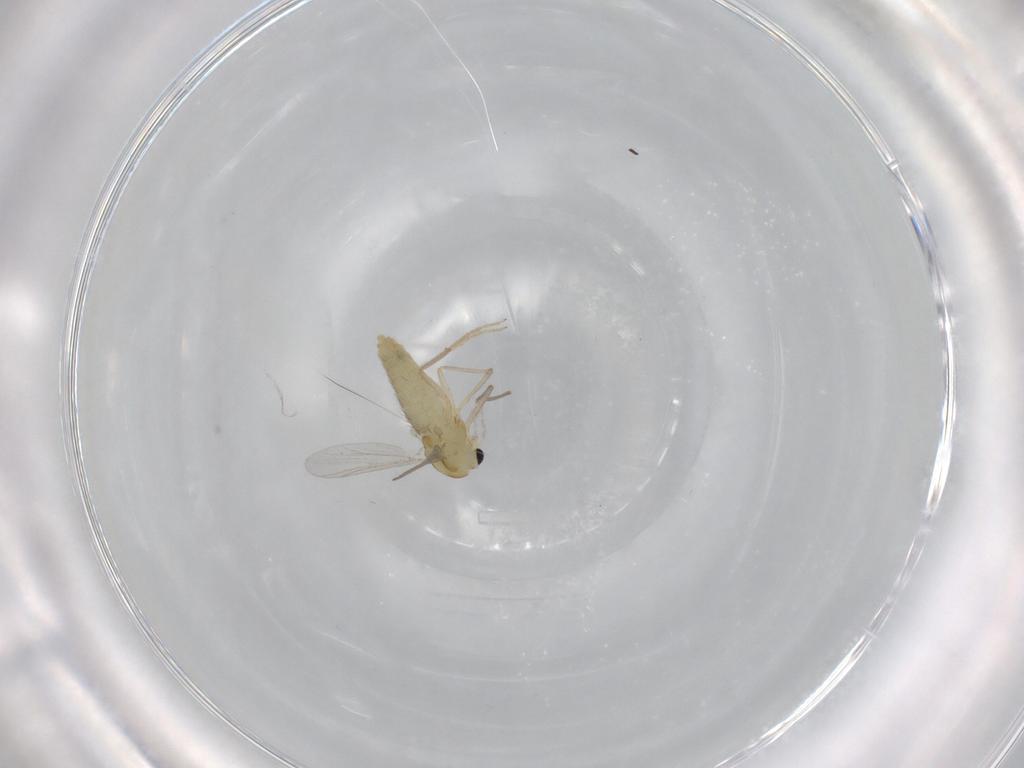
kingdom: Animalia
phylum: Arthropoda
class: Insecta
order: Diptera
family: Chironomidae
